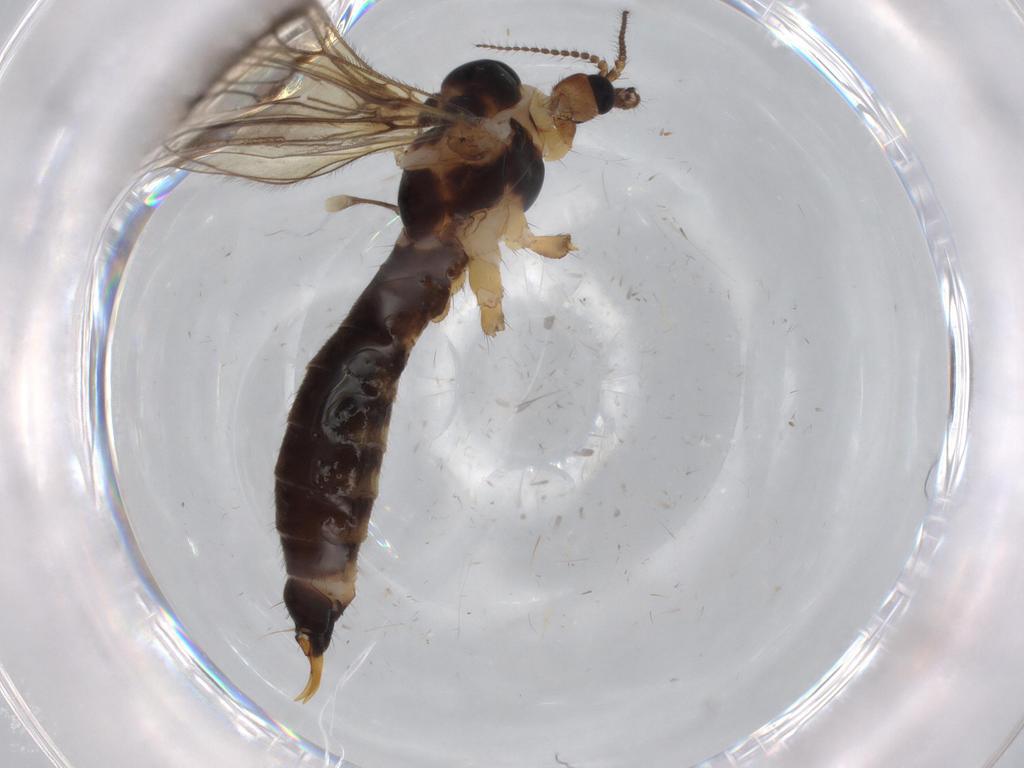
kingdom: Animalia
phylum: Arthropoda
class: Insecta
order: Diptera
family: Limoniidae
